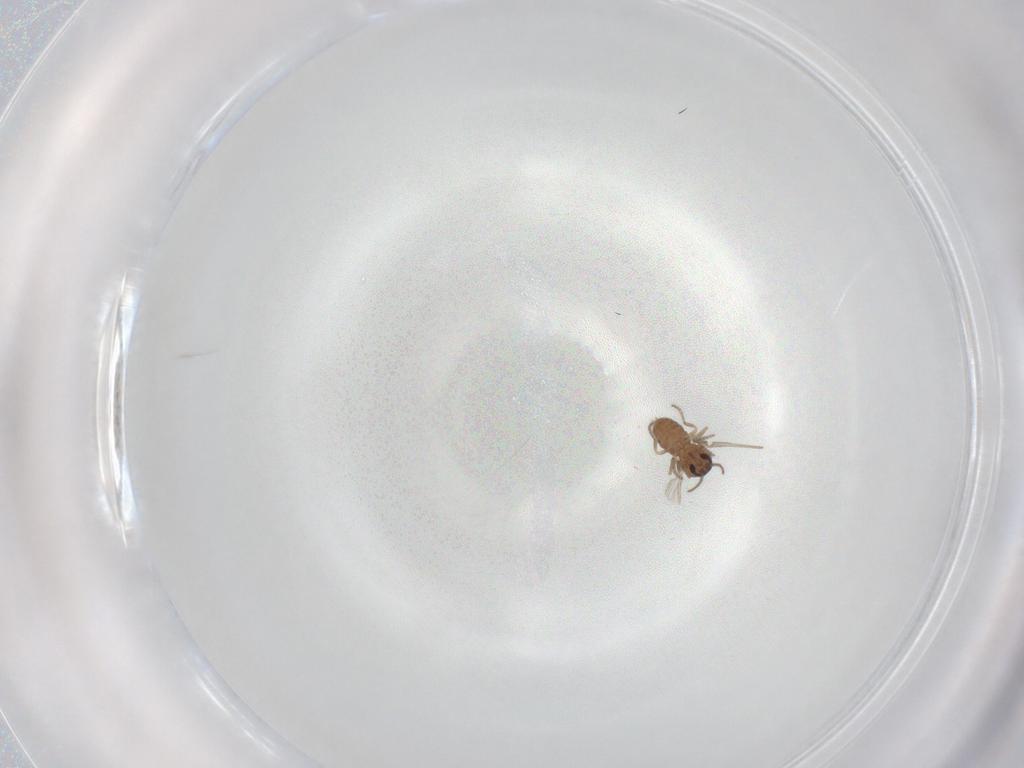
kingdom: Animalia
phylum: Arthropoda
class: Insecta
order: Diptera
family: Ceratopogonidae
